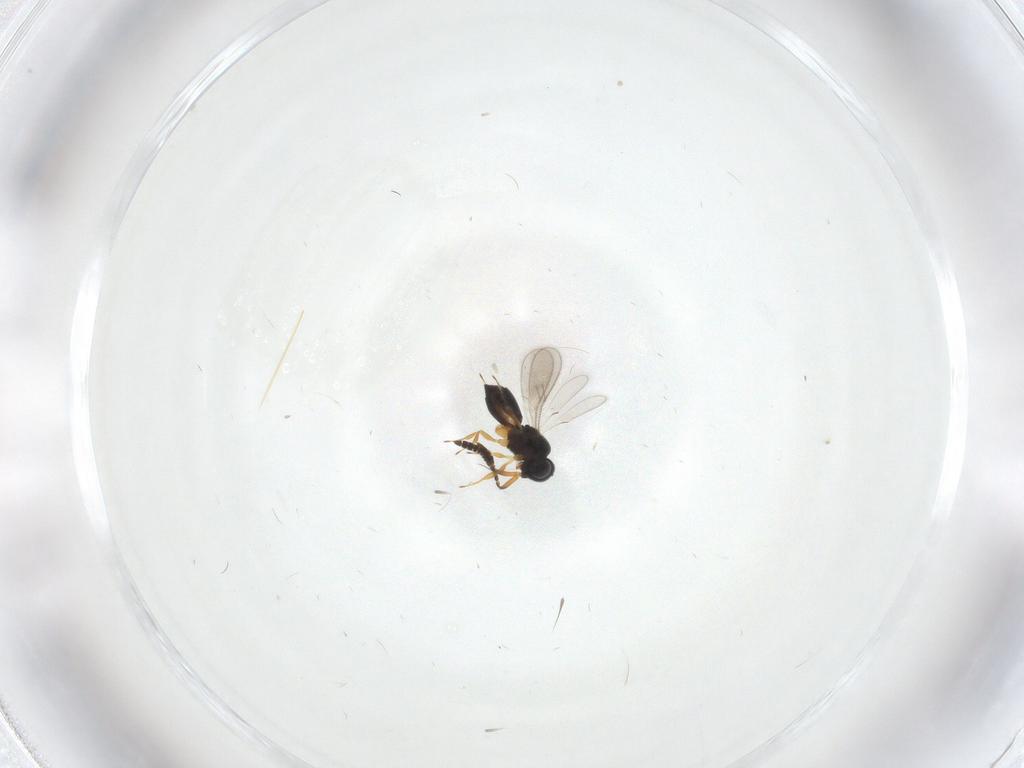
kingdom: Animalia
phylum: Arthropoda
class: Insecta
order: Hymenoptera
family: Scelionidae
